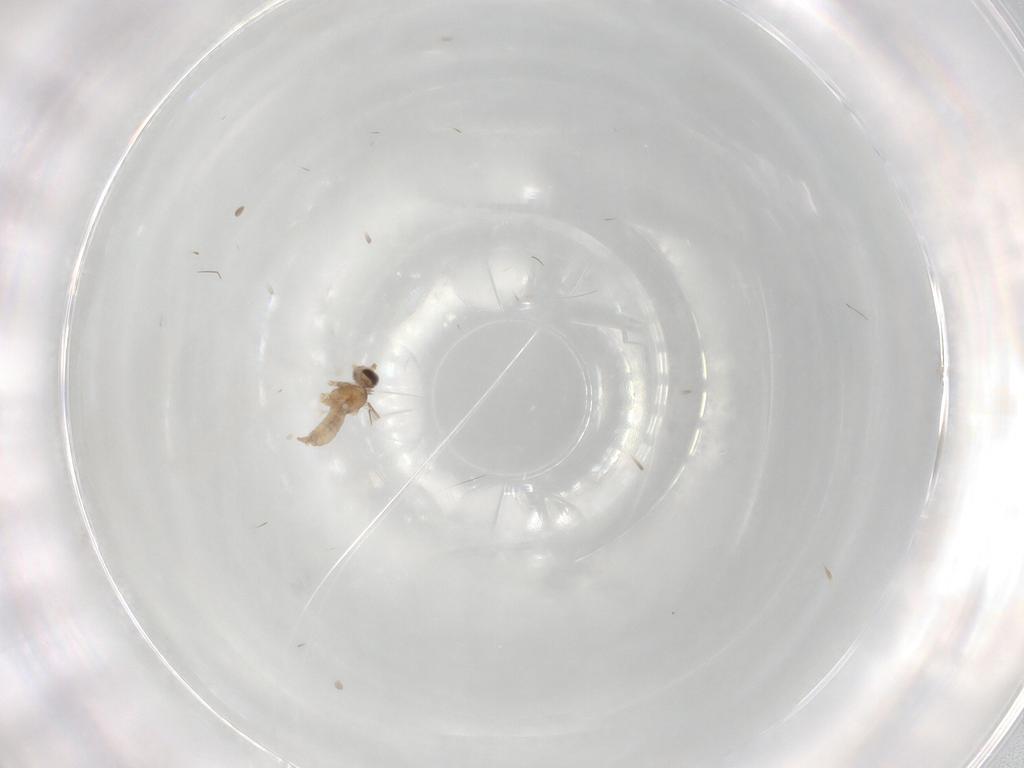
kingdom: Animalia
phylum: Arthropoda
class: Insecta
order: Diptera
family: Cecidomyiidae
